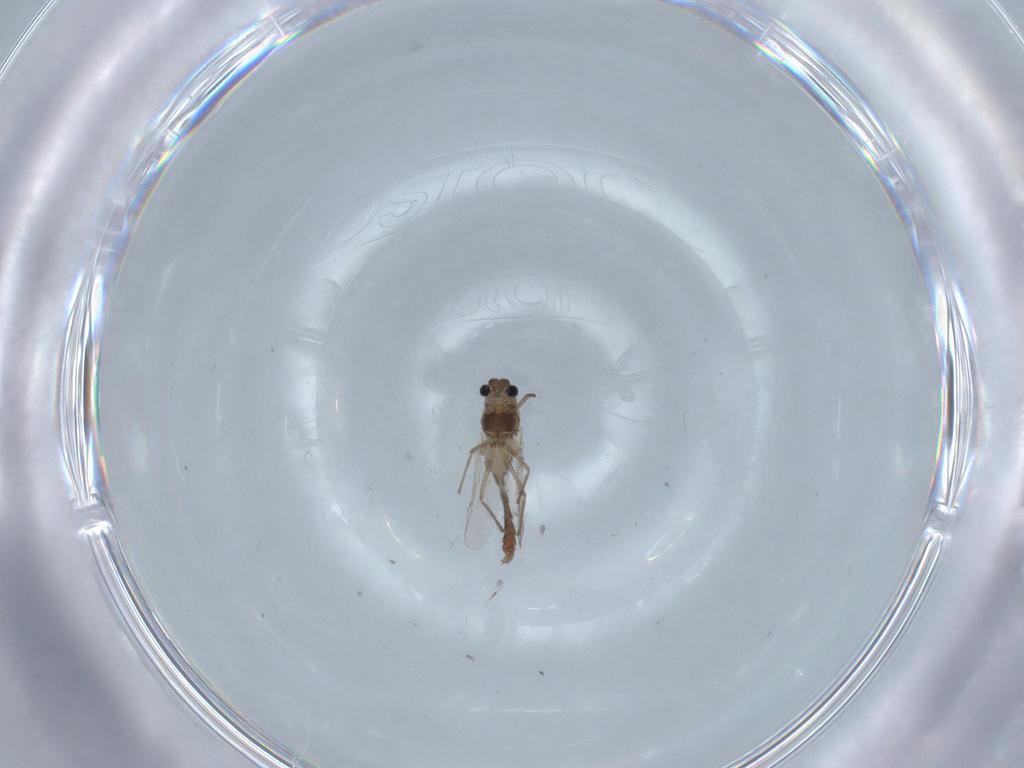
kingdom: Animalia
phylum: Arthropoda
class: Insecta
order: Diptera
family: Chironomidae
